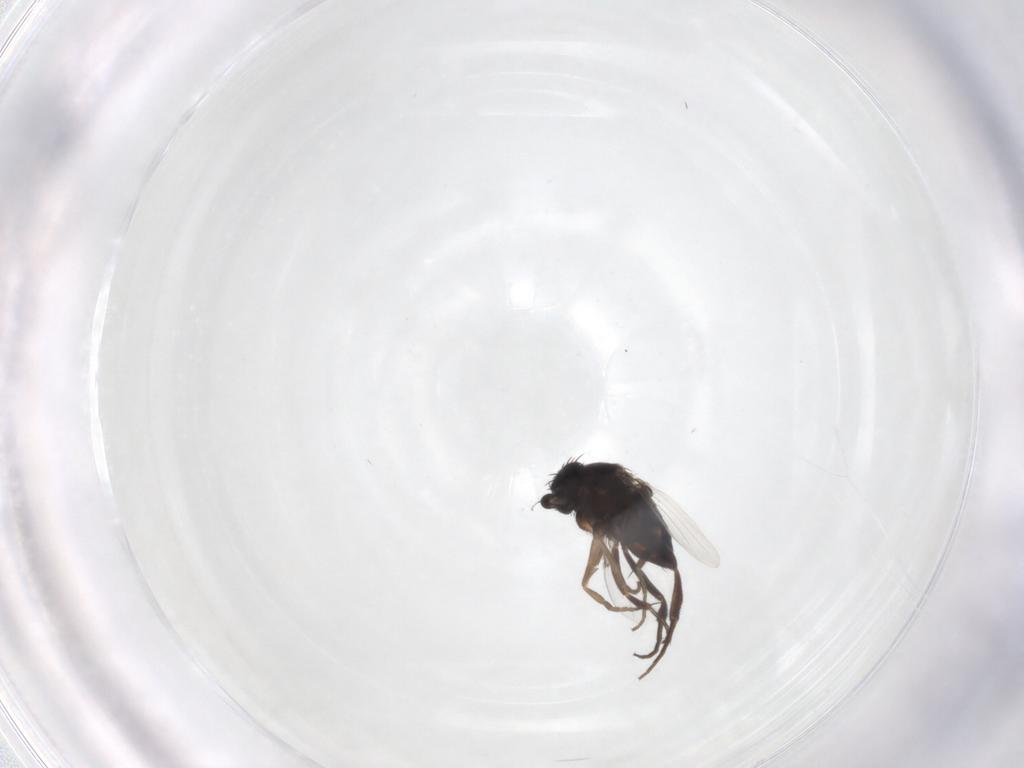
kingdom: Animalia
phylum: Arthropoda
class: Insecta
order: Diptera
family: Phoridae
